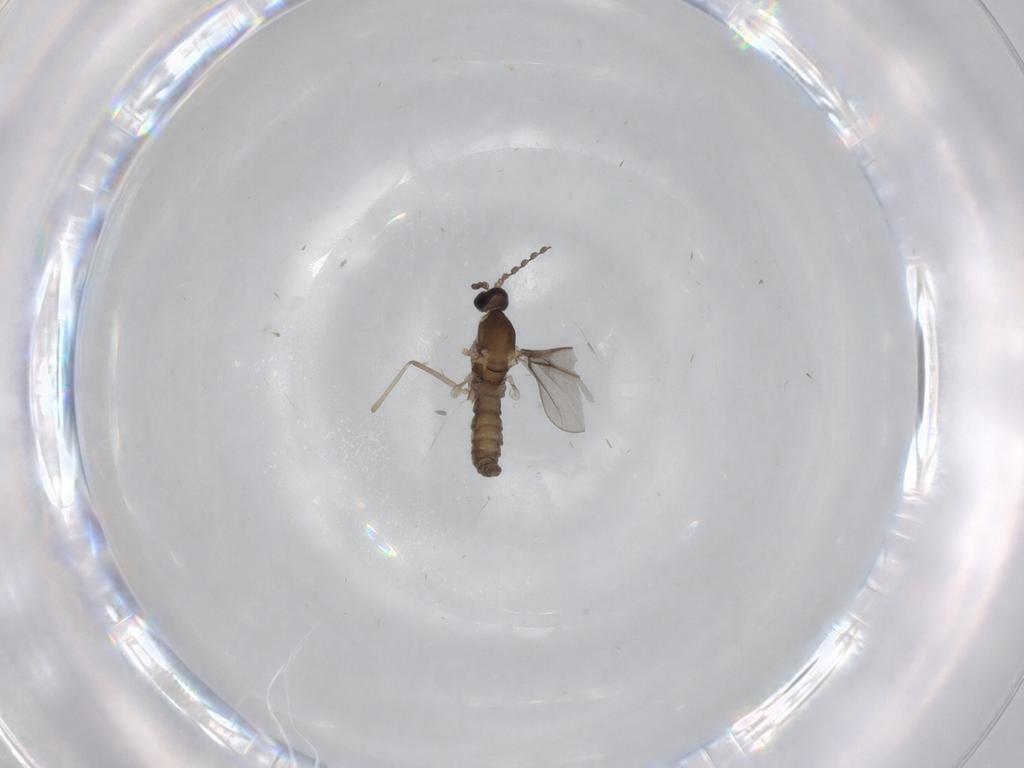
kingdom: Animalia
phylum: Arthropoda
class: Insecta
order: Diptera
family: Cecidomyiidae
